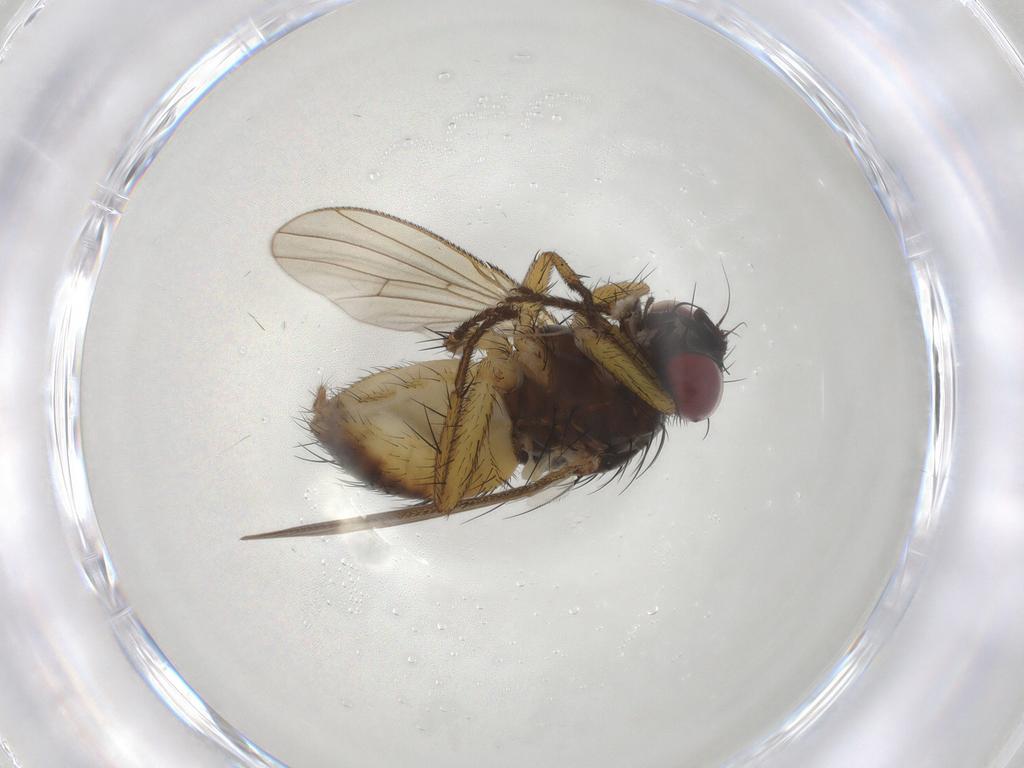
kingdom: Animalia
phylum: Arthropoda
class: Insecta
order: Diptera
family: Muscidae
